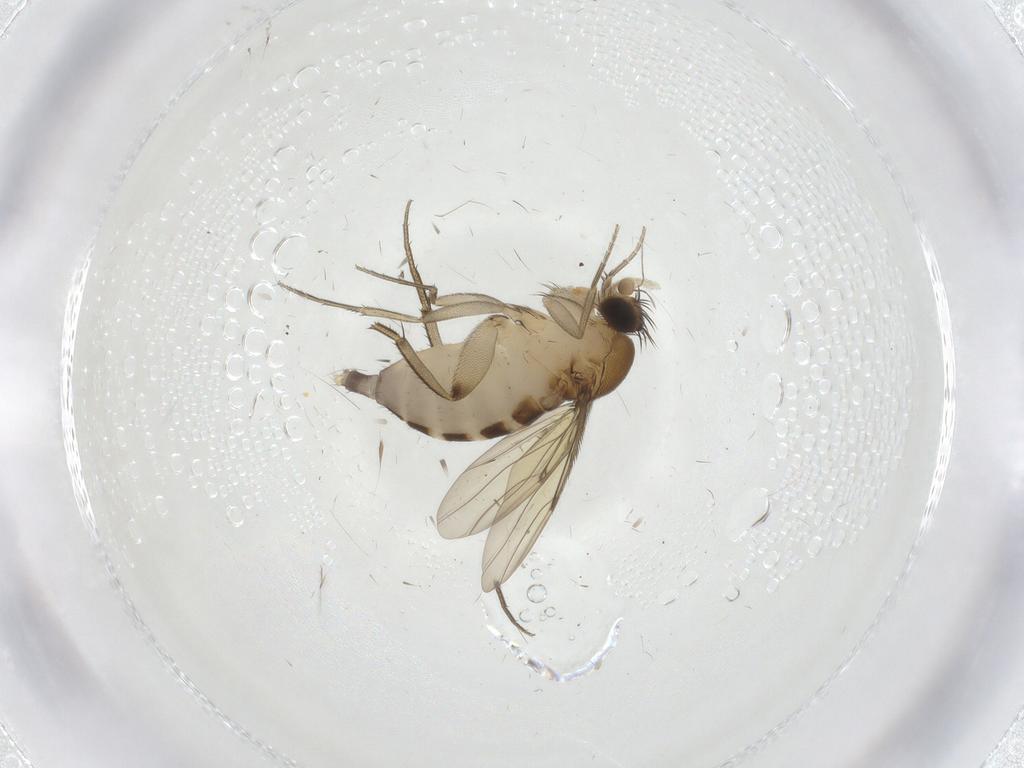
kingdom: Animalia
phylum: Arthropoda
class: Insecta
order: Diptera
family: Phoridae
